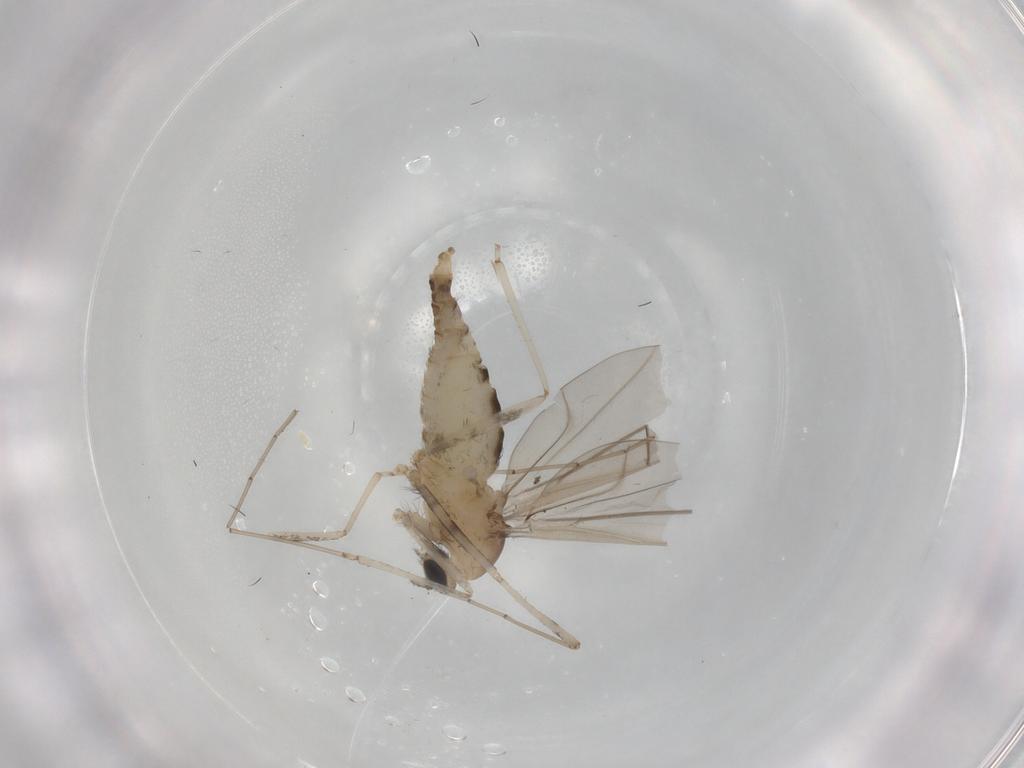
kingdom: Animalia
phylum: Arthropoda
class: Insecta
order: Diptera
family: Cecidomyiidae
